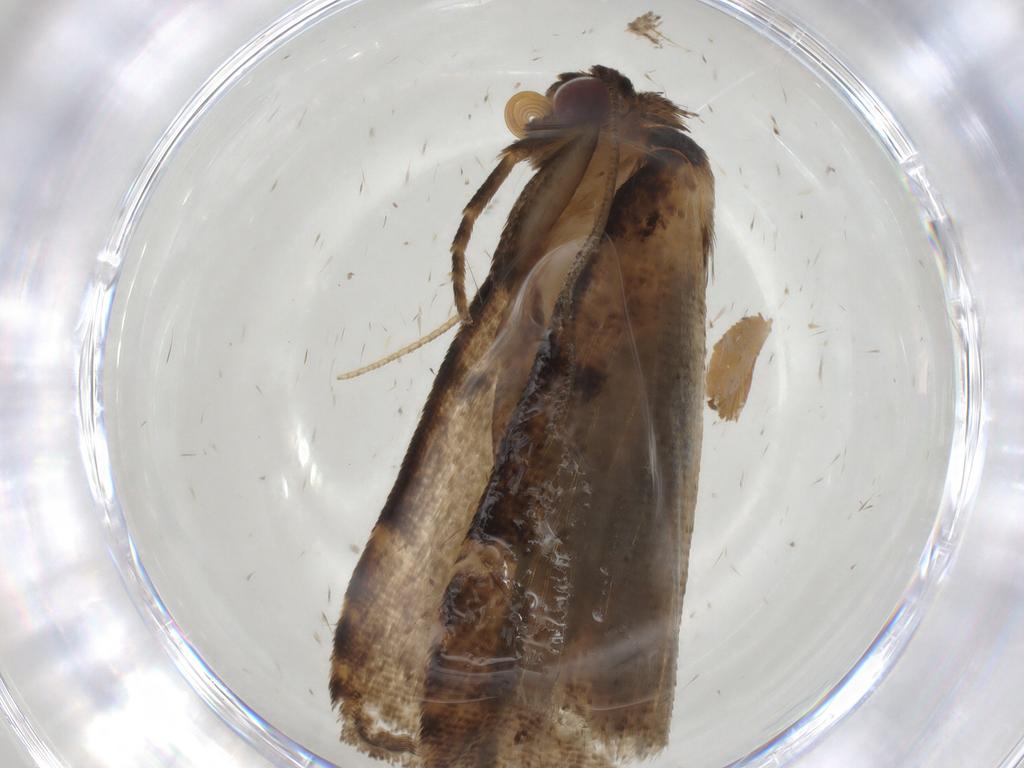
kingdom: Animalia
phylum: Arthropoda
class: Insecta
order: Lepidoptera
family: Erebidae
